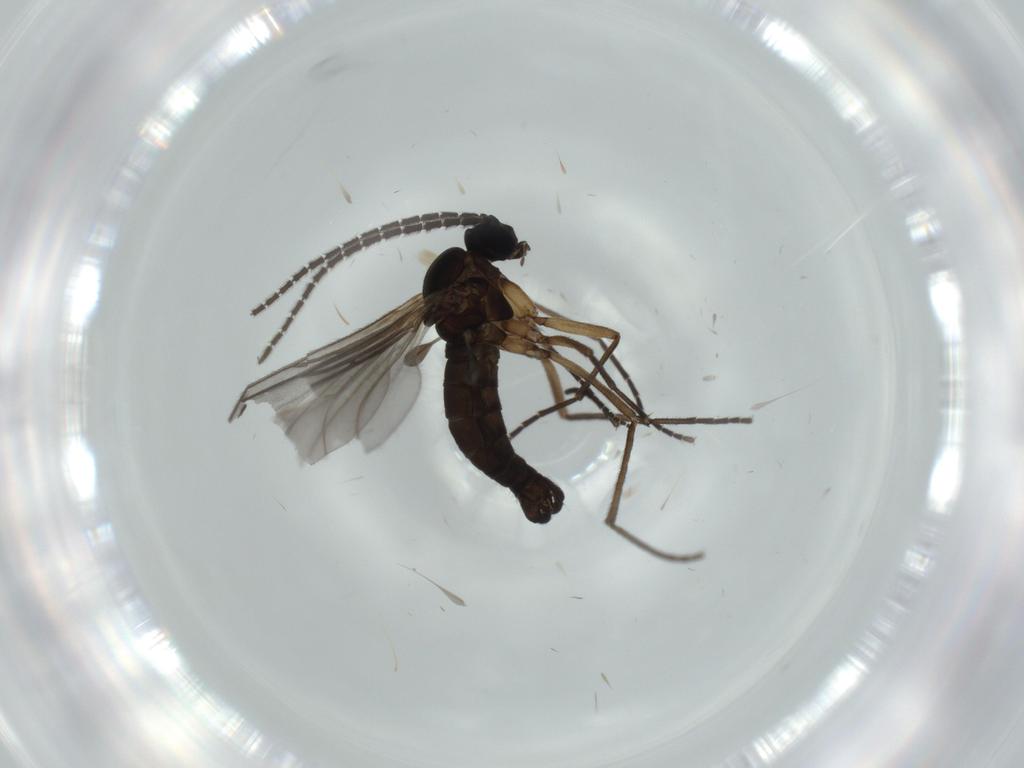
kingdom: Animalia
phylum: Arthropoda
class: Insecta
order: Diptera
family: Sciaridae
